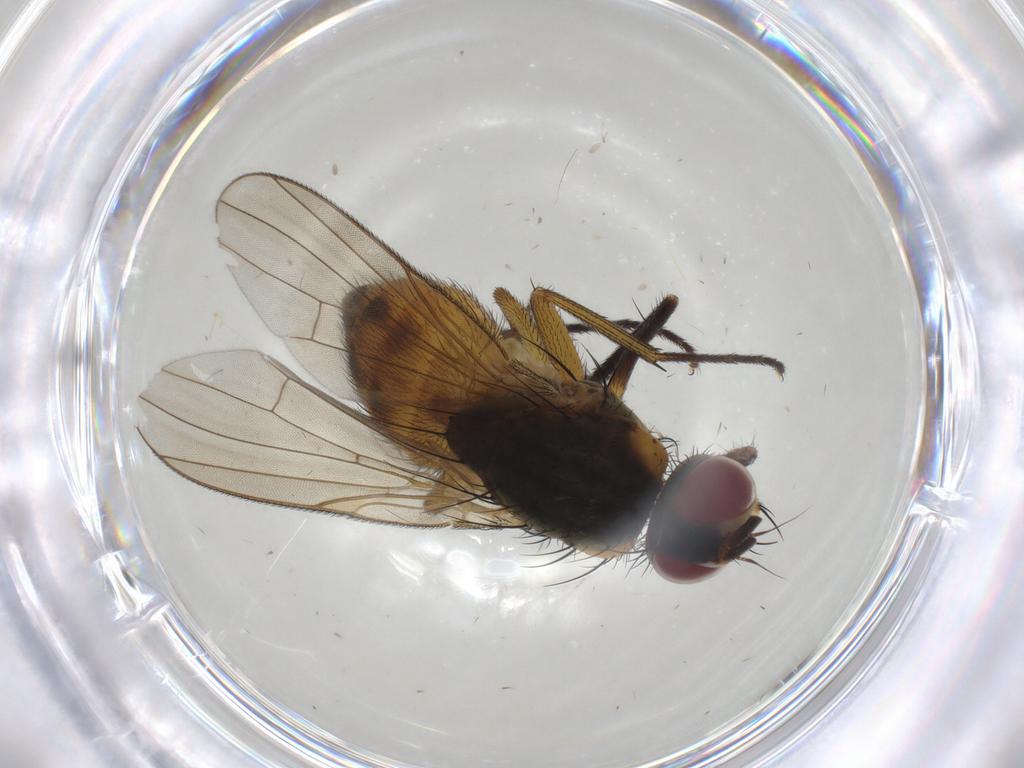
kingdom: Animalia
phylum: Arthropoda
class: Insecta
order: Diptera
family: Muscidae
